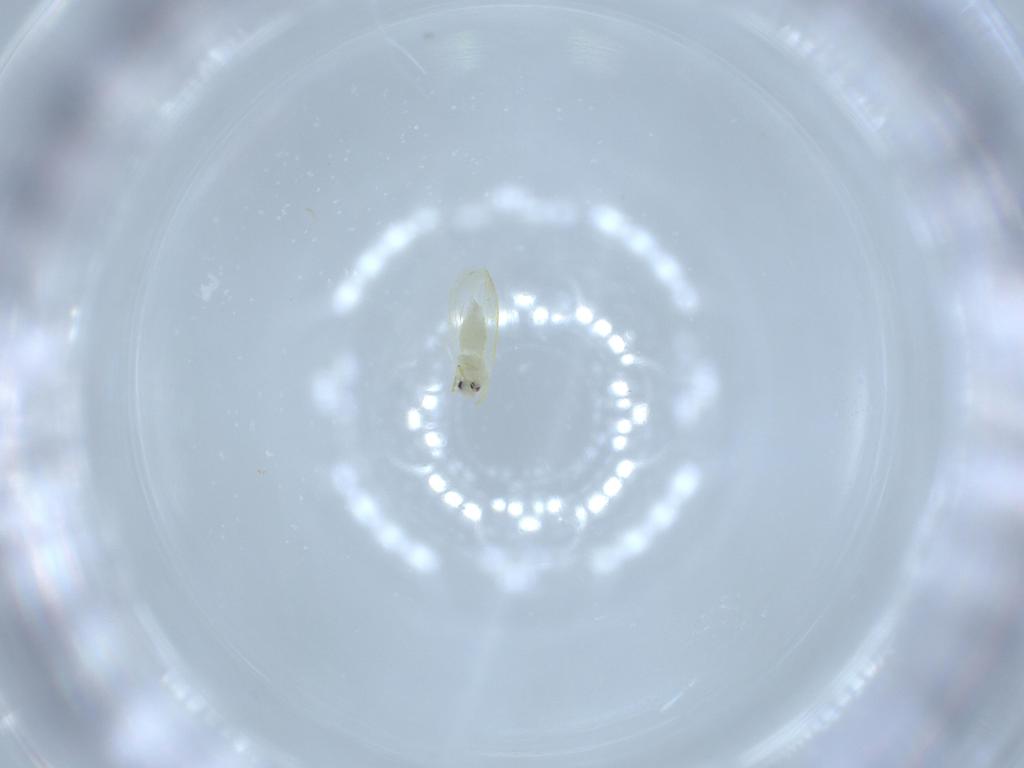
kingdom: Animalia
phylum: Arthropoda
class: Insecta
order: Hemiptera
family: Aleyrodidae
